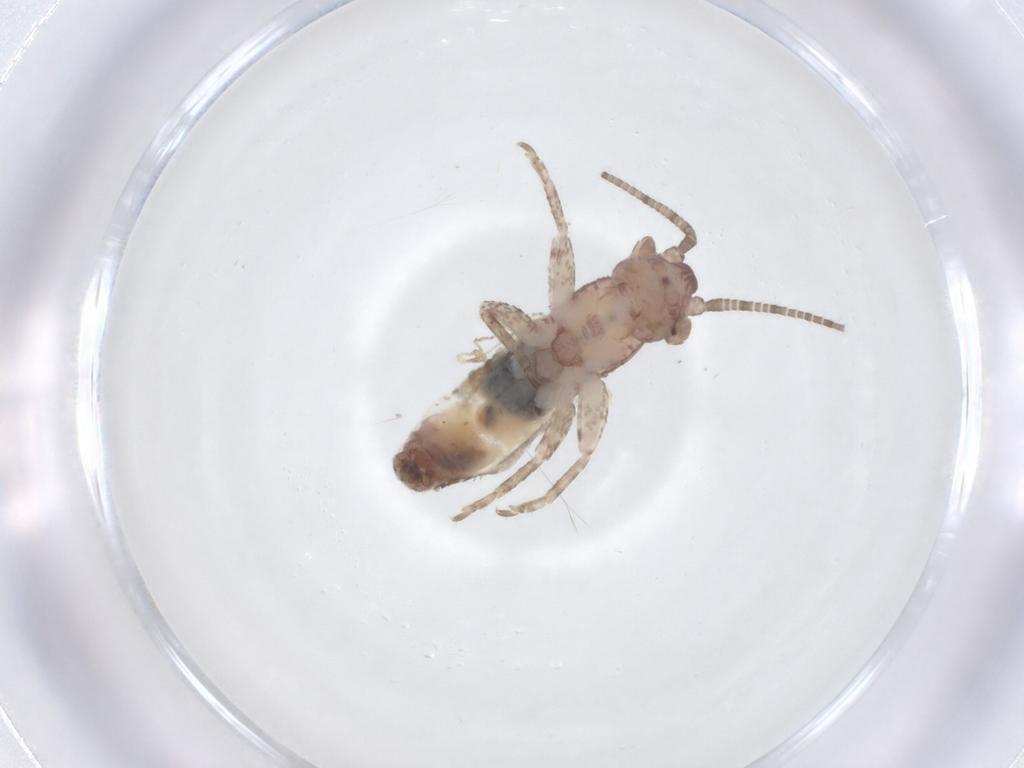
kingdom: Animalia
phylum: Arthropoda
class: Insecta
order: Orthoptera
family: Gryllidae
